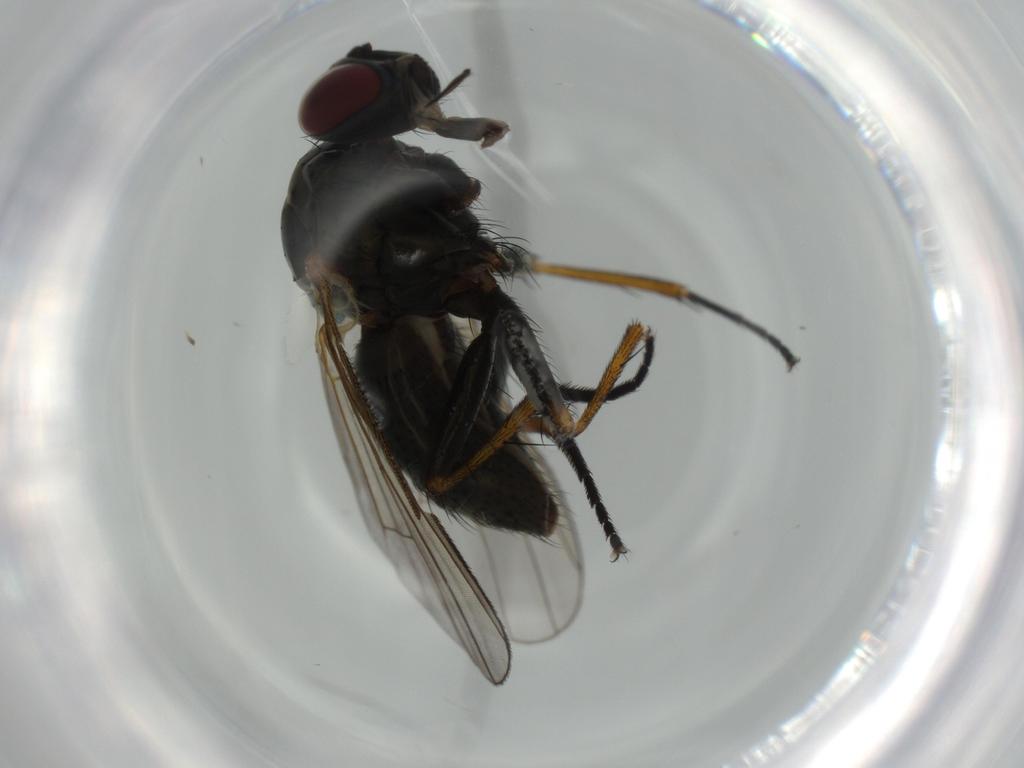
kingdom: Animalia
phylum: Arthropoda
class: Insecta
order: Diptera
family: Muscidae
